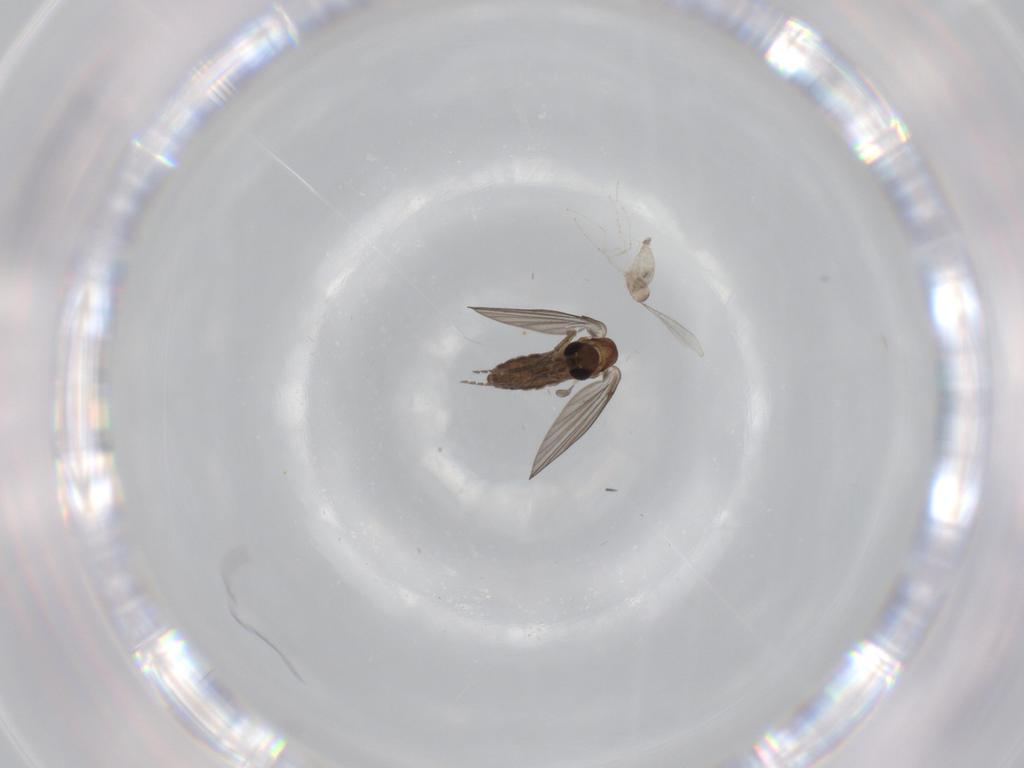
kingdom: Animalia
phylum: Arthropoda
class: Insecta
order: Diptera
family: Cecidomyiidae
